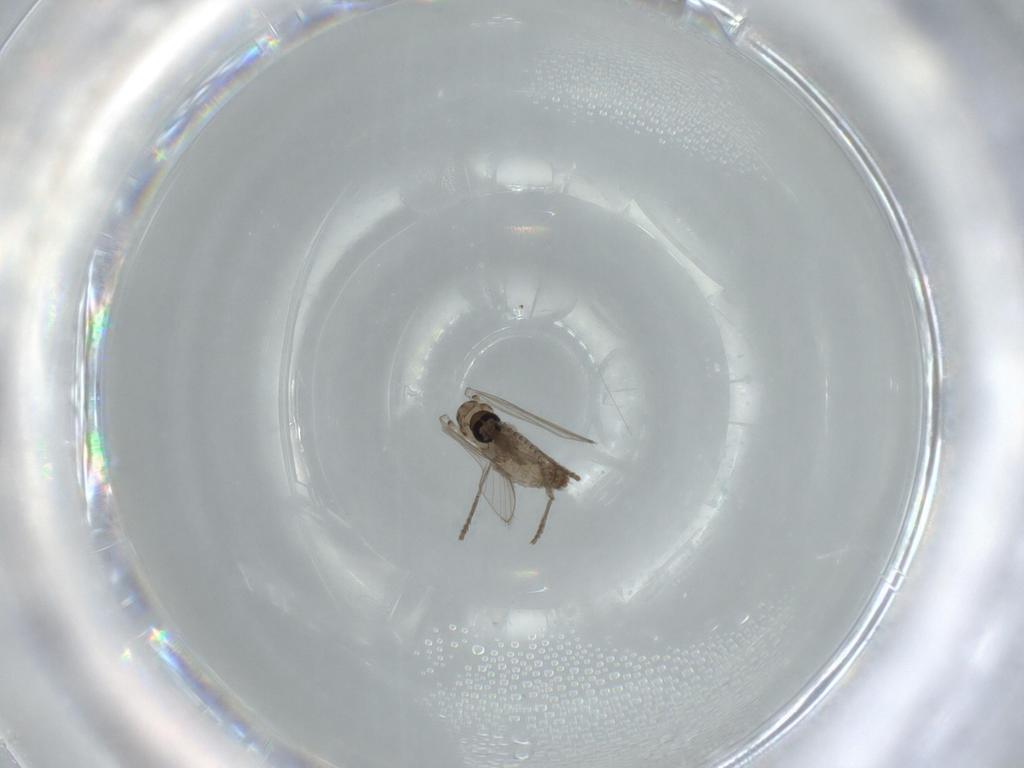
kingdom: Animalia
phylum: Arthropoda
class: Insecta
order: Diptera
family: Psychodidae
